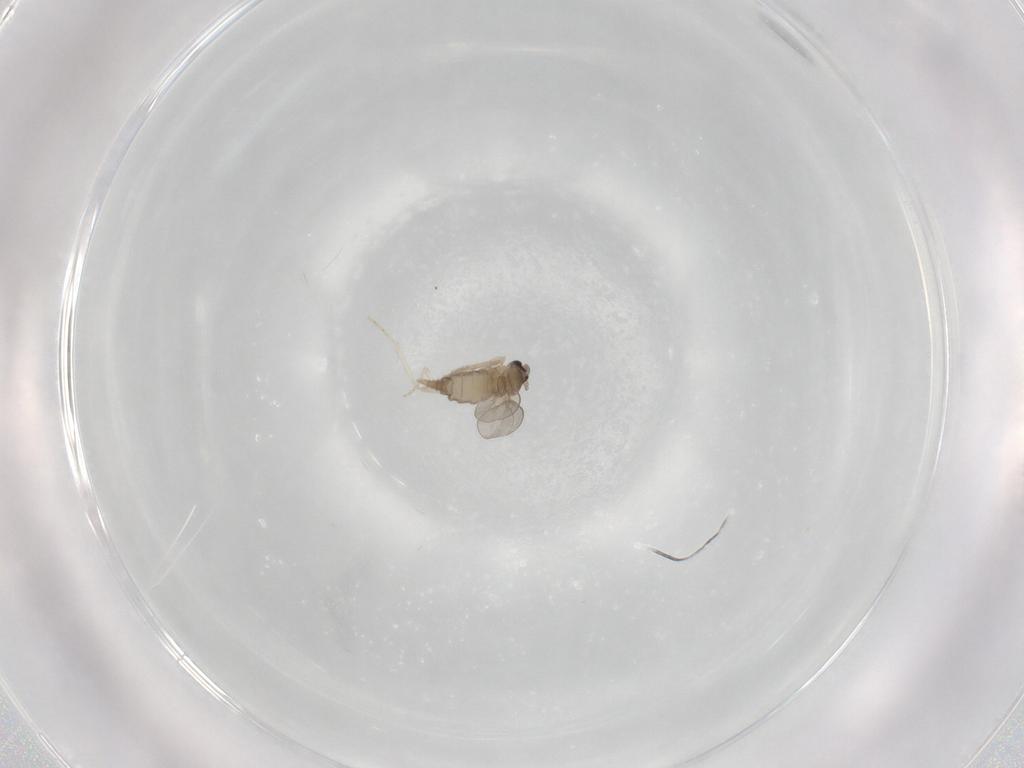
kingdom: Animalia
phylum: Arthropoda
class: Insecta
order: Diptera
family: Cecidomyiidae
